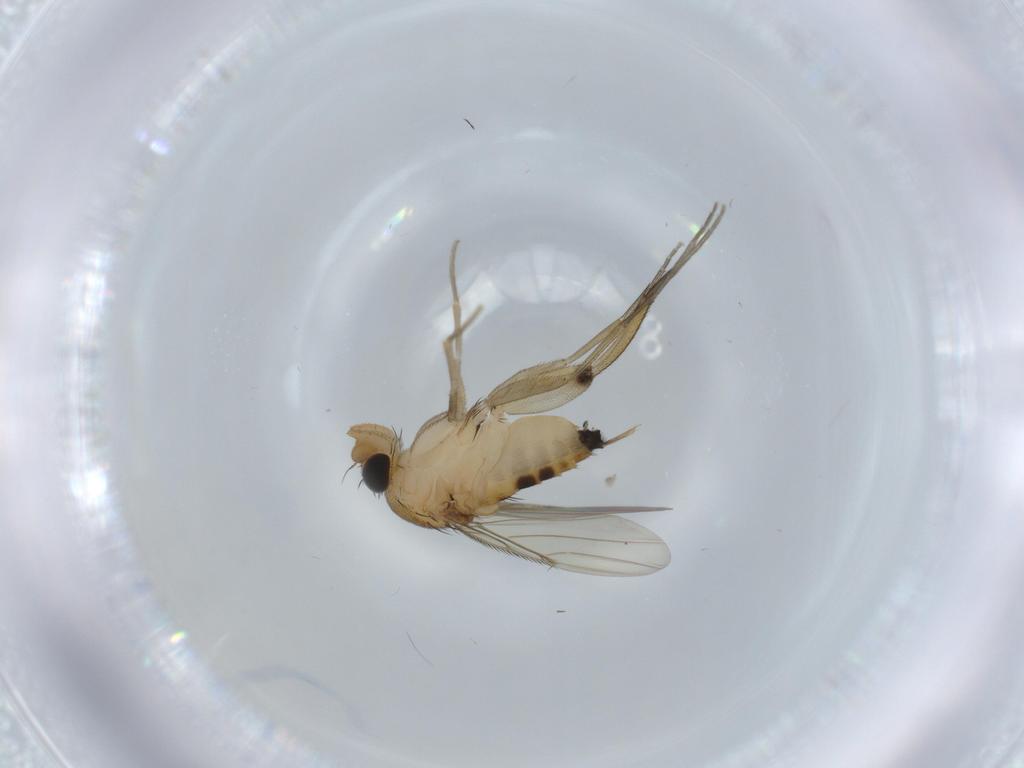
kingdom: Animalia
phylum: Arthropoda
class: Insecta
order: Diptera
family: Phoridae
